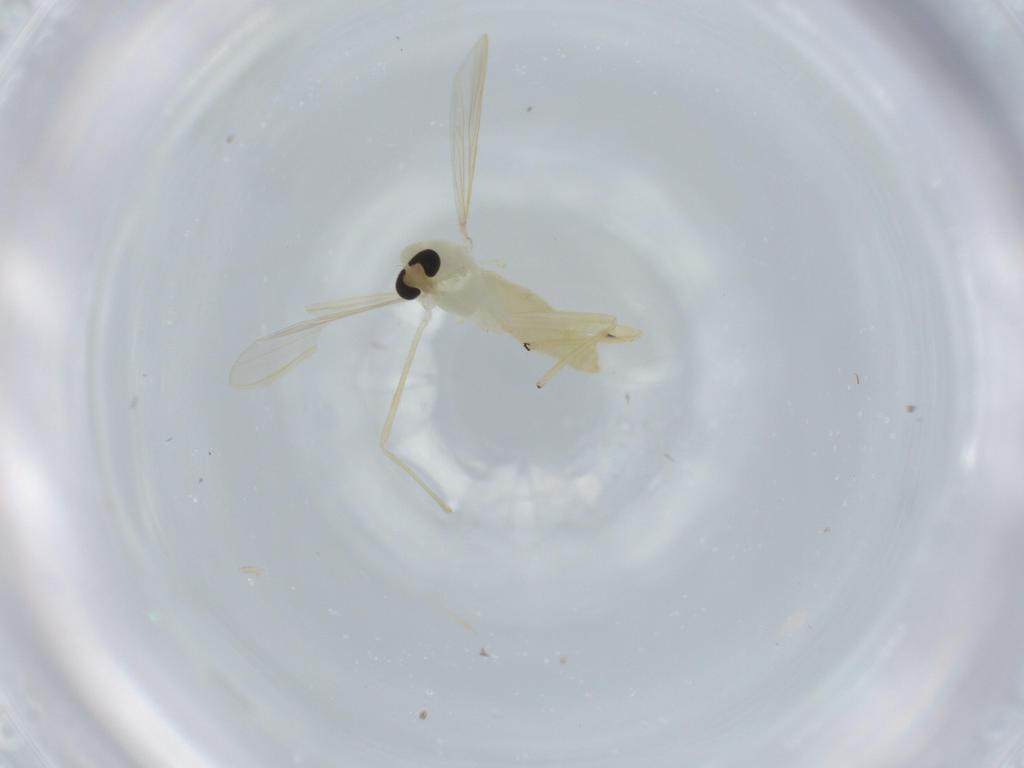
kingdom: Animalia
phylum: Arthropoda
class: Insecta
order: Diptera
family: Chironomidae
